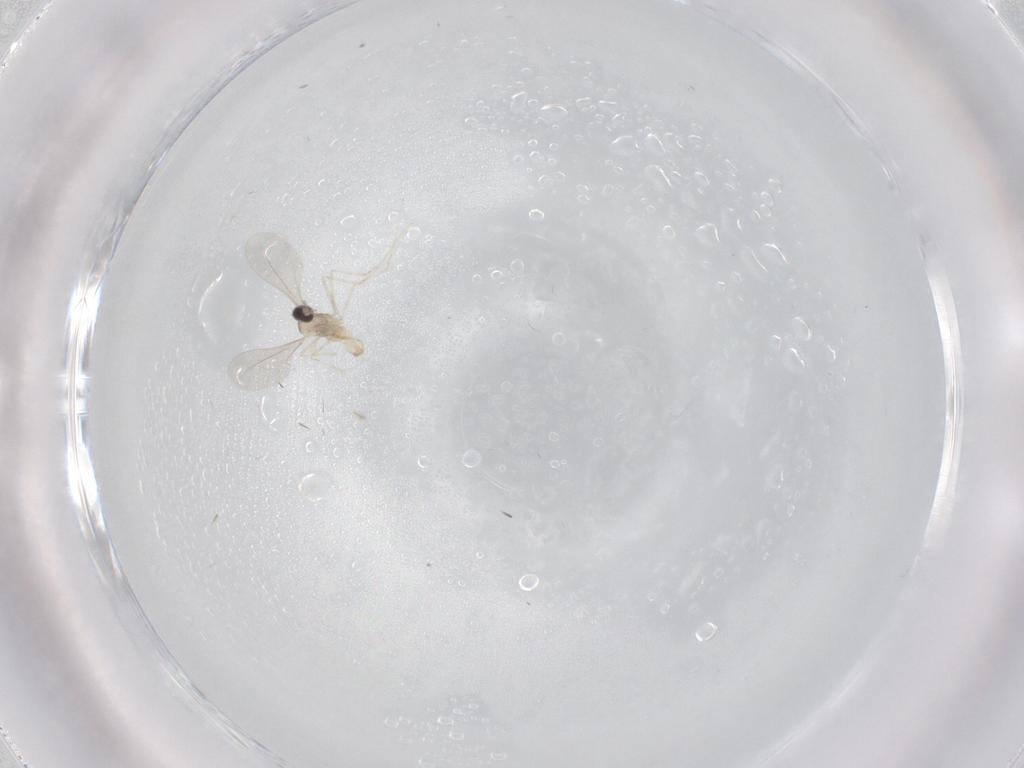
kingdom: Animalia
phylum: Arthropoda
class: Insecta
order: Diptera
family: Cecidomyiidae
